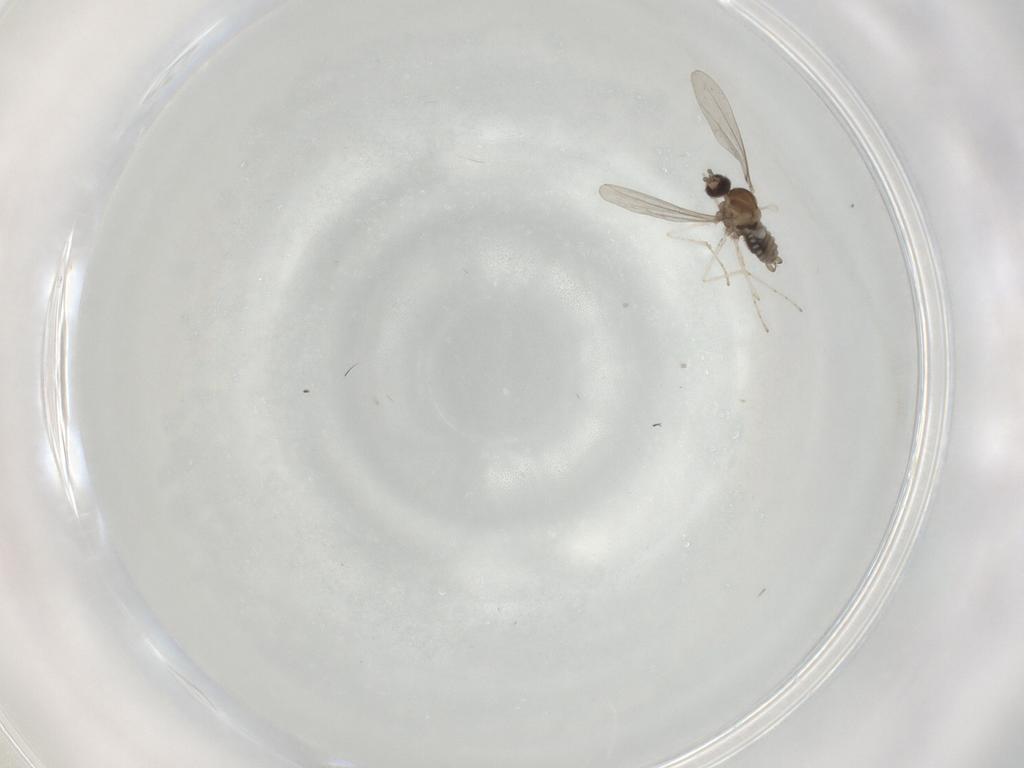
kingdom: Animalia
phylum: Arthropoda
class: Insecta
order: Diptera
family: Cecidomyiidae
